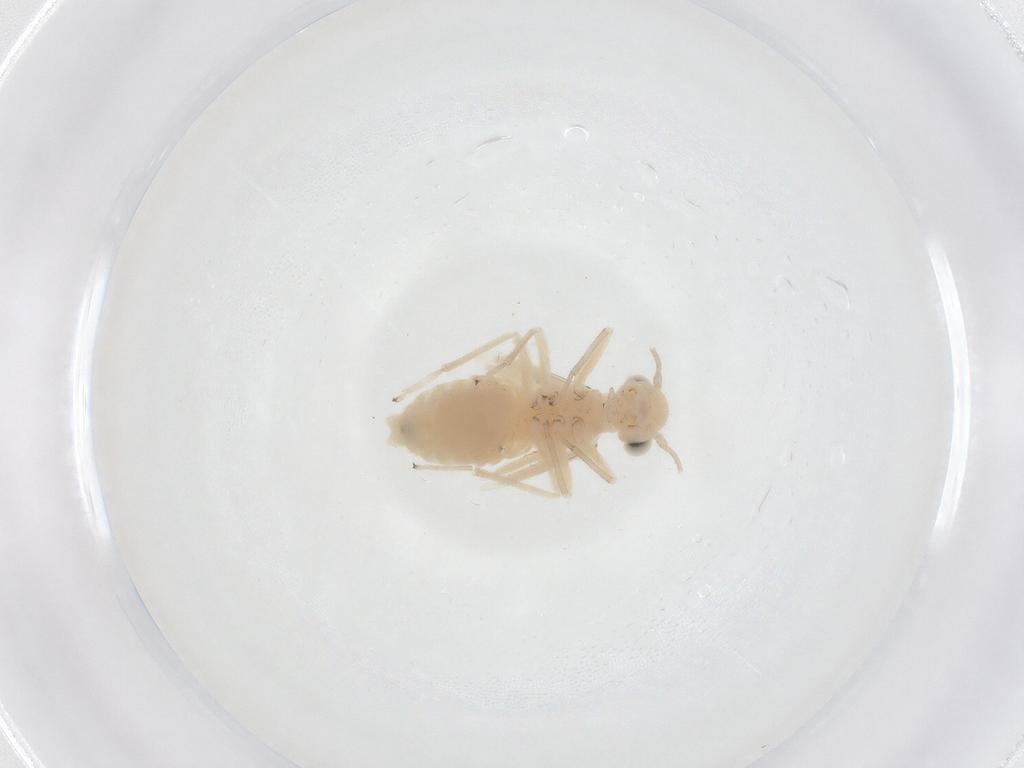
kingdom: Animalia
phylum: Arthropoda
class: Insecta
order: Psocodea
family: Caeciliusidae
